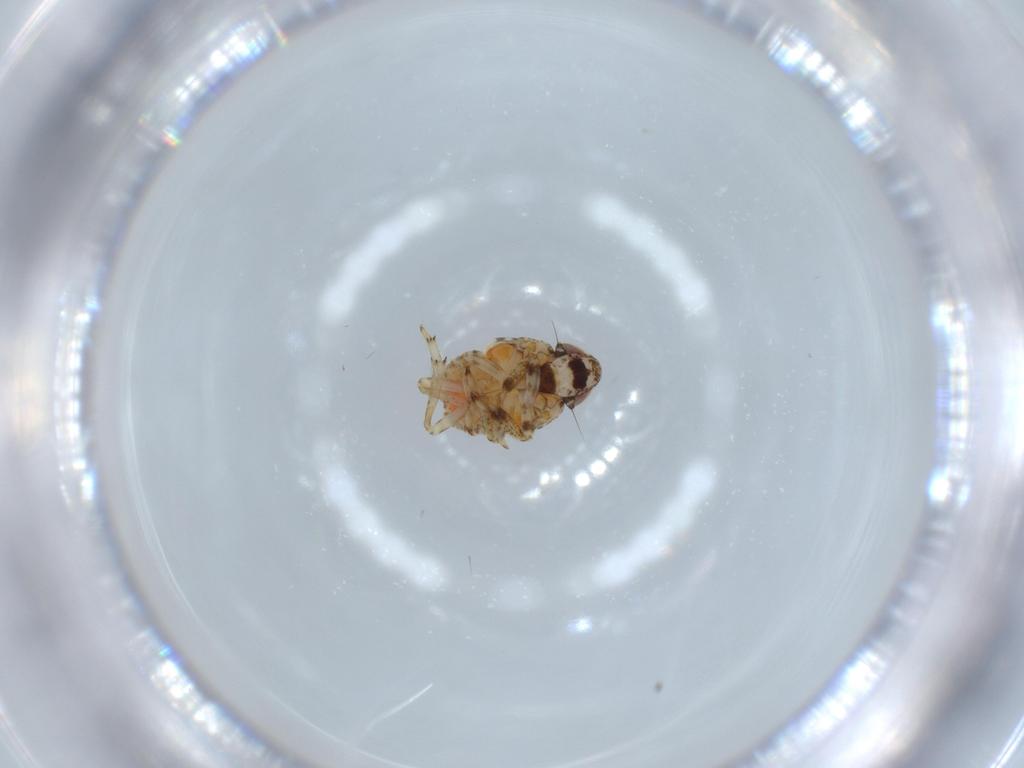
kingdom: Animalia
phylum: Arthropoda
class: Insecta
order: Hemiptera
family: Issidae
